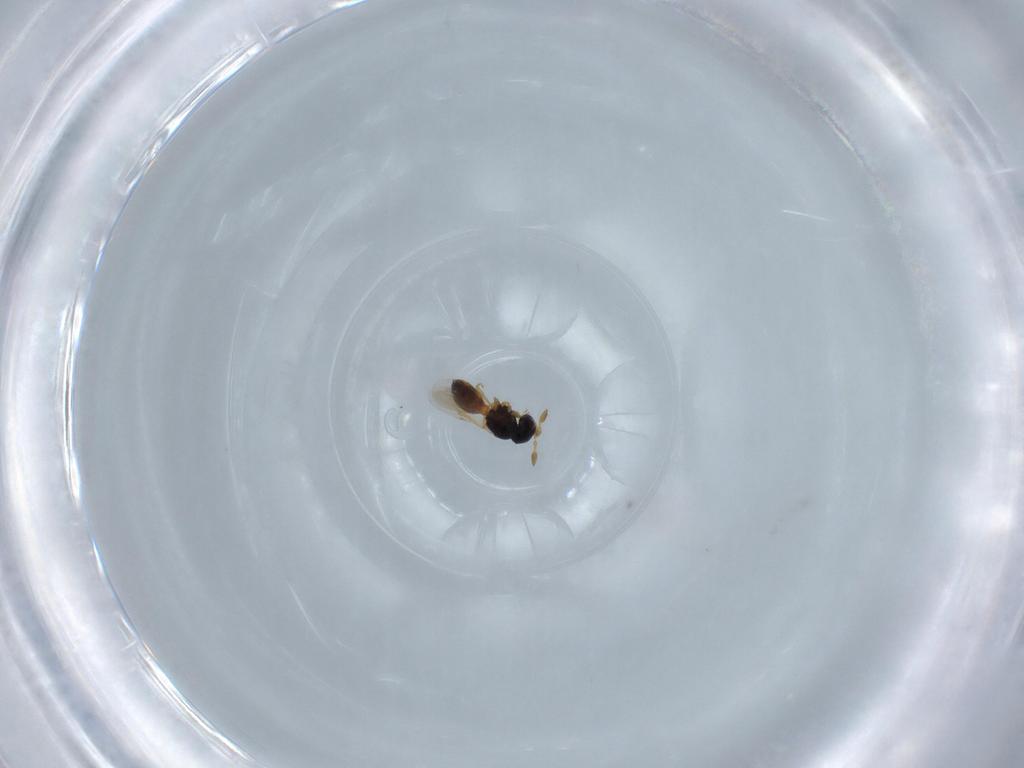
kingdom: Animalia
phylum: Arthropoda
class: Insecta
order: Hymenoptera
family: Scelionidae
